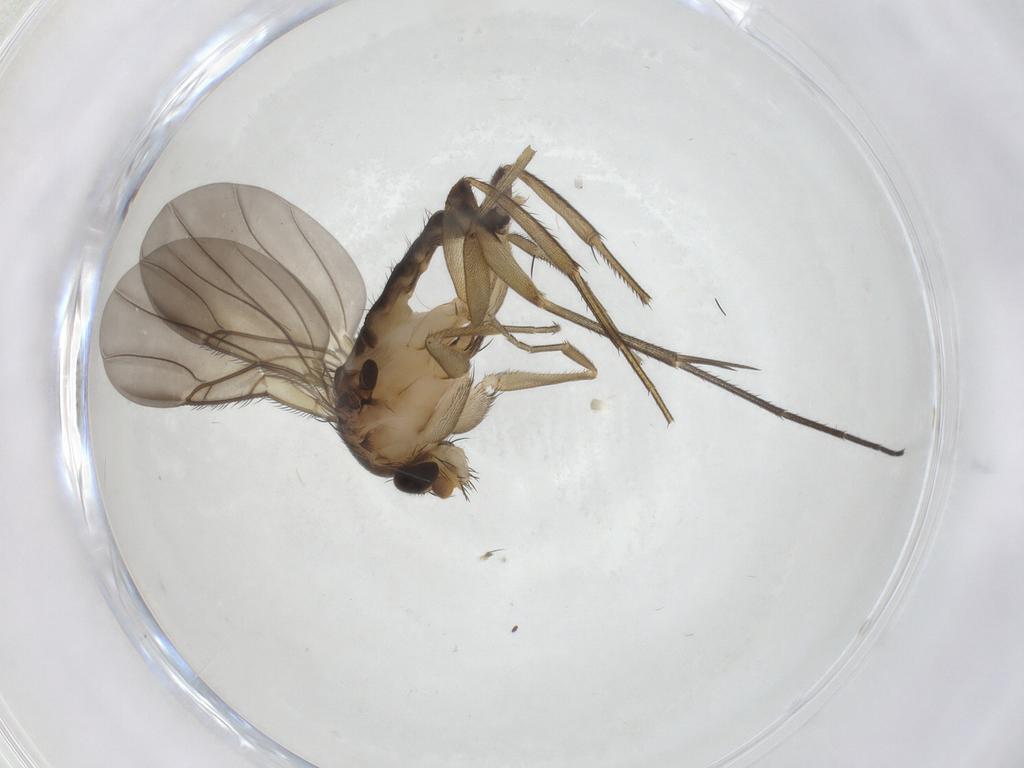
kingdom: Animalia
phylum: Arthropoda
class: Insecta
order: Diptera
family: Phoridae
